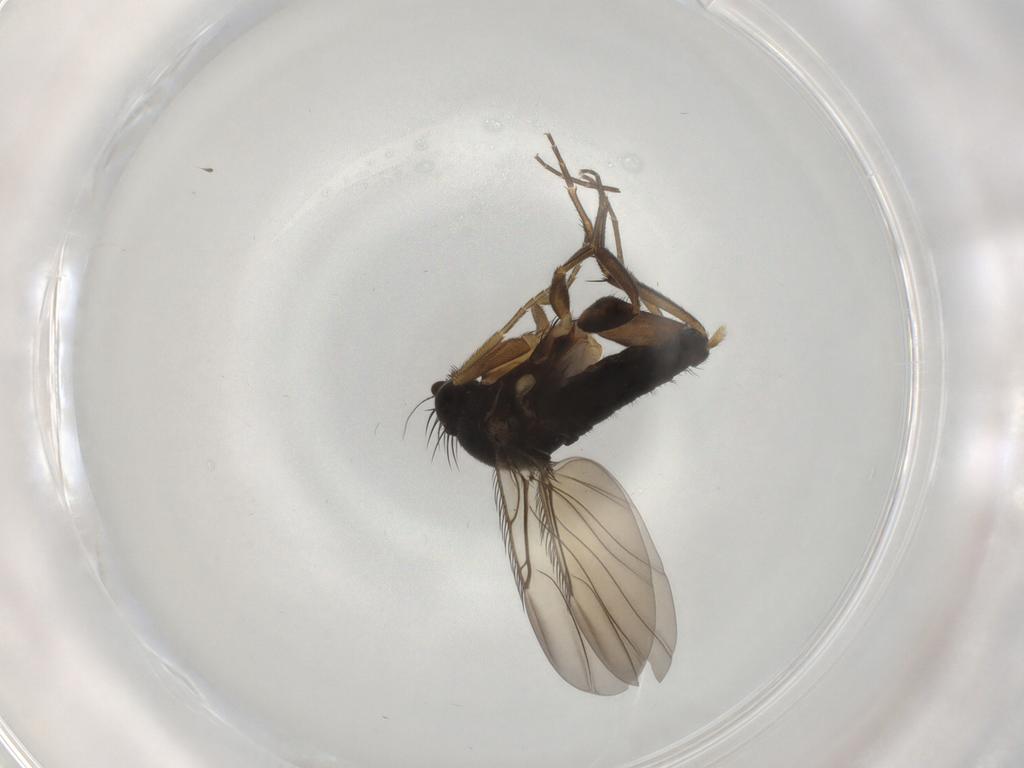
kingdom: Animalia
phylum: Arthropoda
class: Insecta
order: Diptera
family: Phoridae
